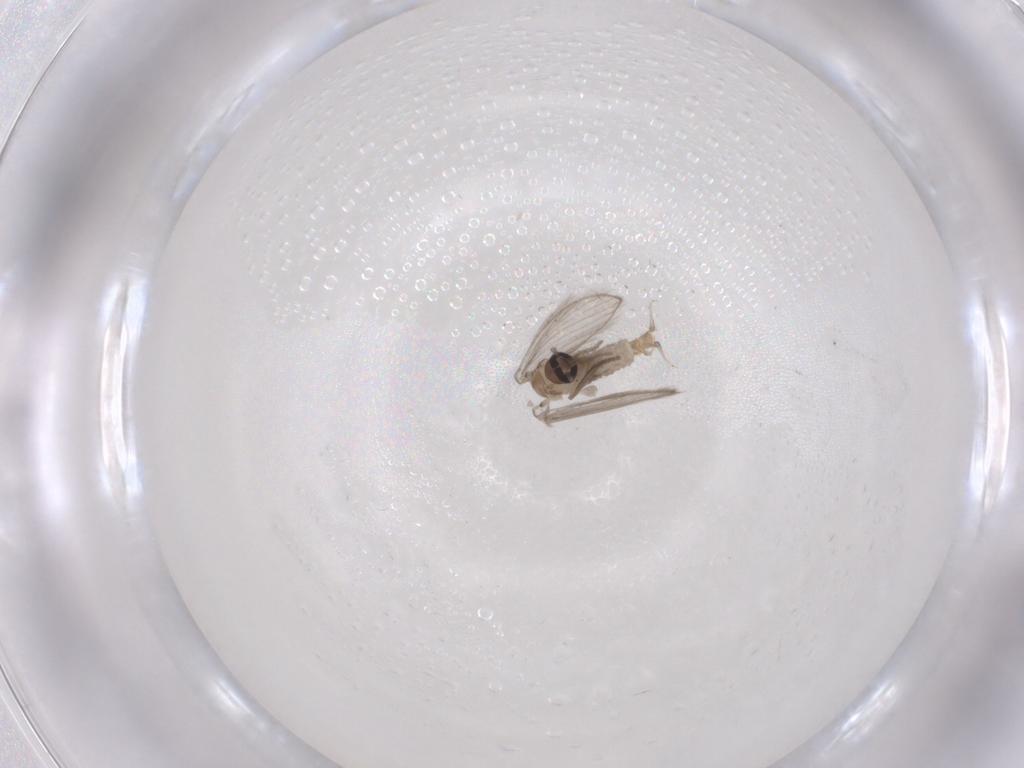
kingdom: Animalia
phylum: Arthropoda
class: Insecta
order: Diptera
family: Psychodidae
